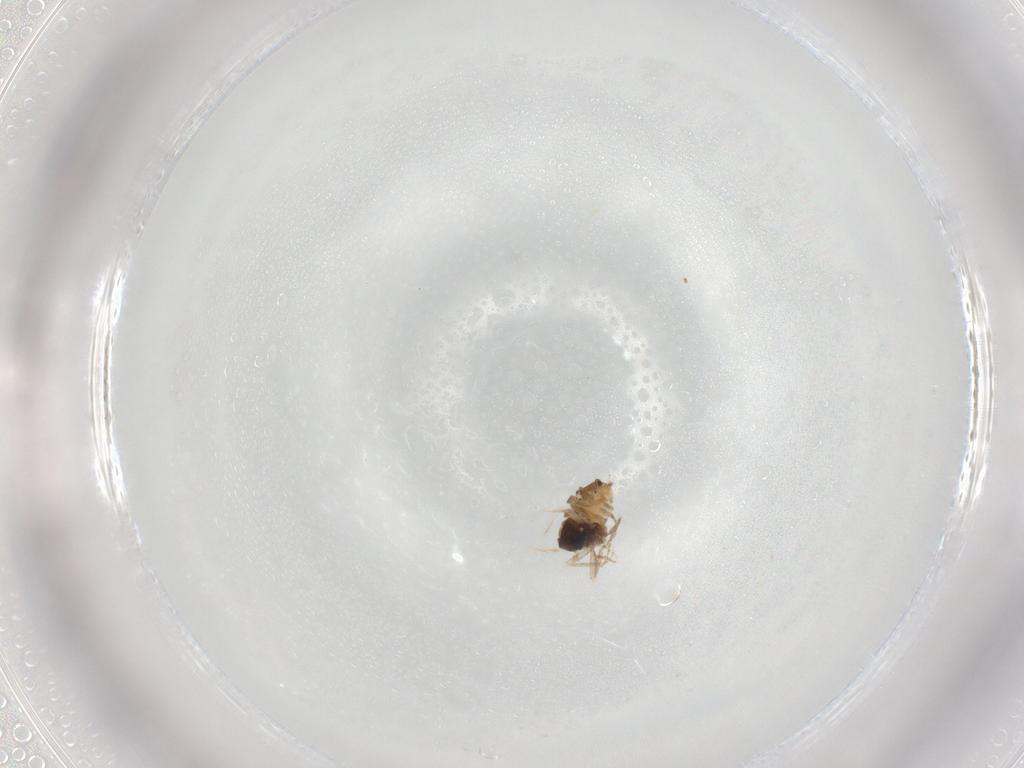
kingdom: Animalia
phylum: Arthropoda
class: Insecta
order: Diptera
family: Cecidomyiidae
